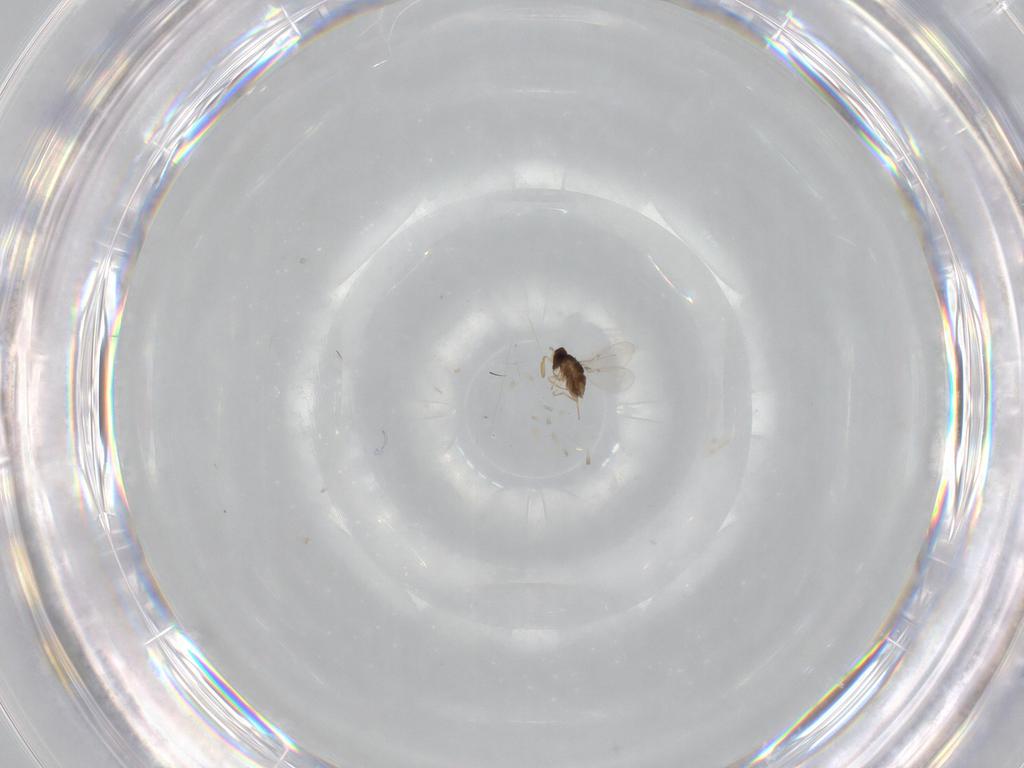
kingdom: Animalia
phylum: Arthropoda
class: Insecta
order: Hymenoptera
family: Encyrtidae
